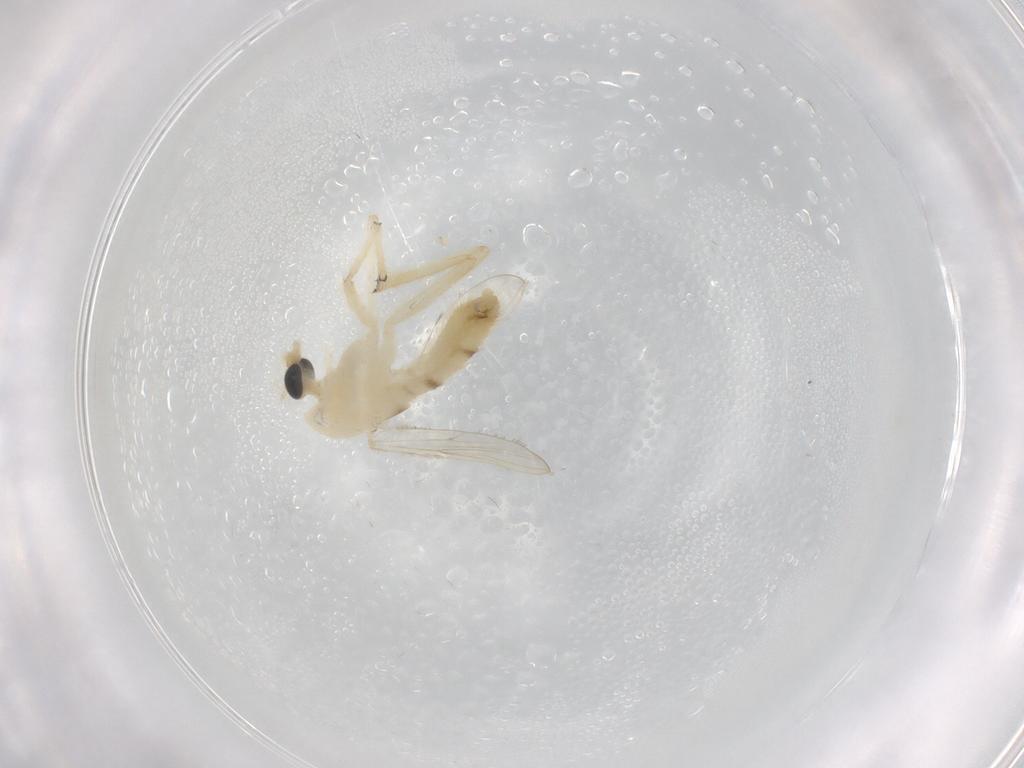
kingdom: Animalia
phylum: Arthropoda
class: Insecta
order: Diptera
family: Chironomidae
